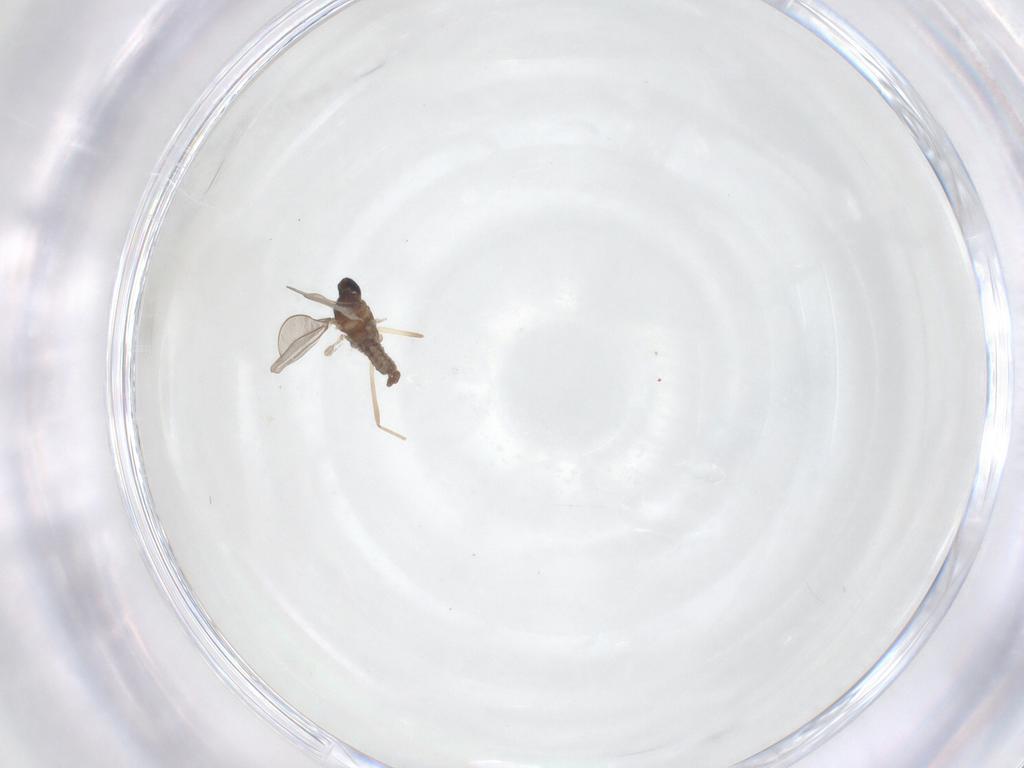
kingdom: Animalia
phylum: Arthropoda
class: Insecta
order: Diptera
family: Cecidomyiidae
